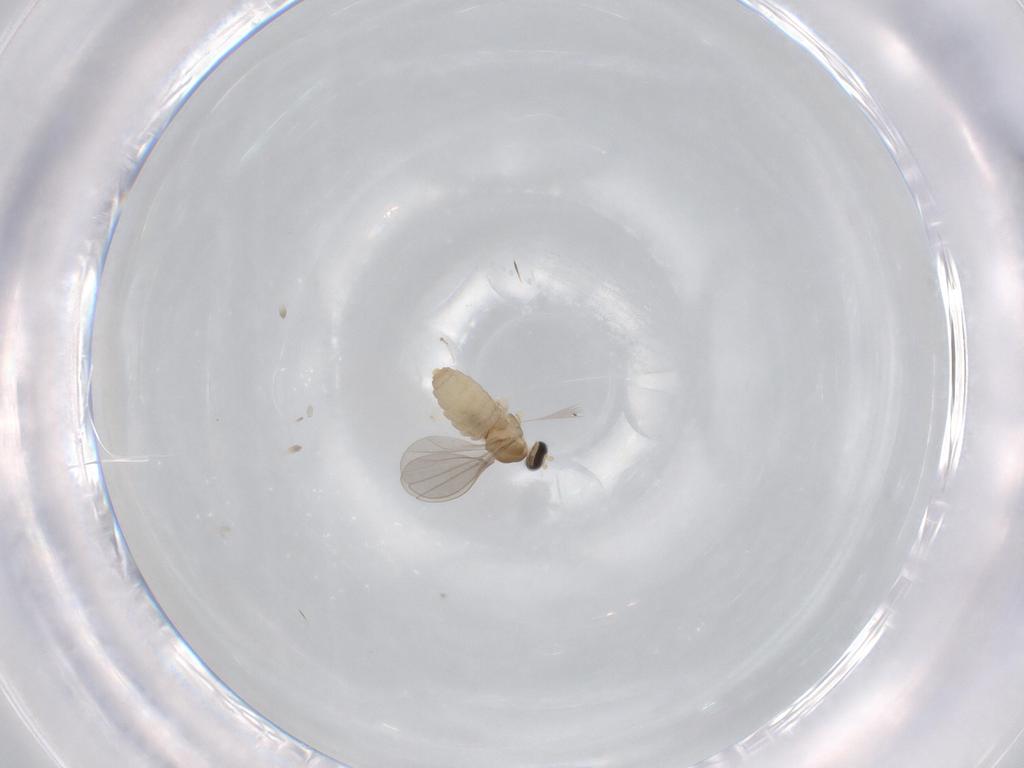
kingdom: Animalia
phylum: Arthropoda
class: Insecta
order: Diptera
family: Cecidomyiidae
